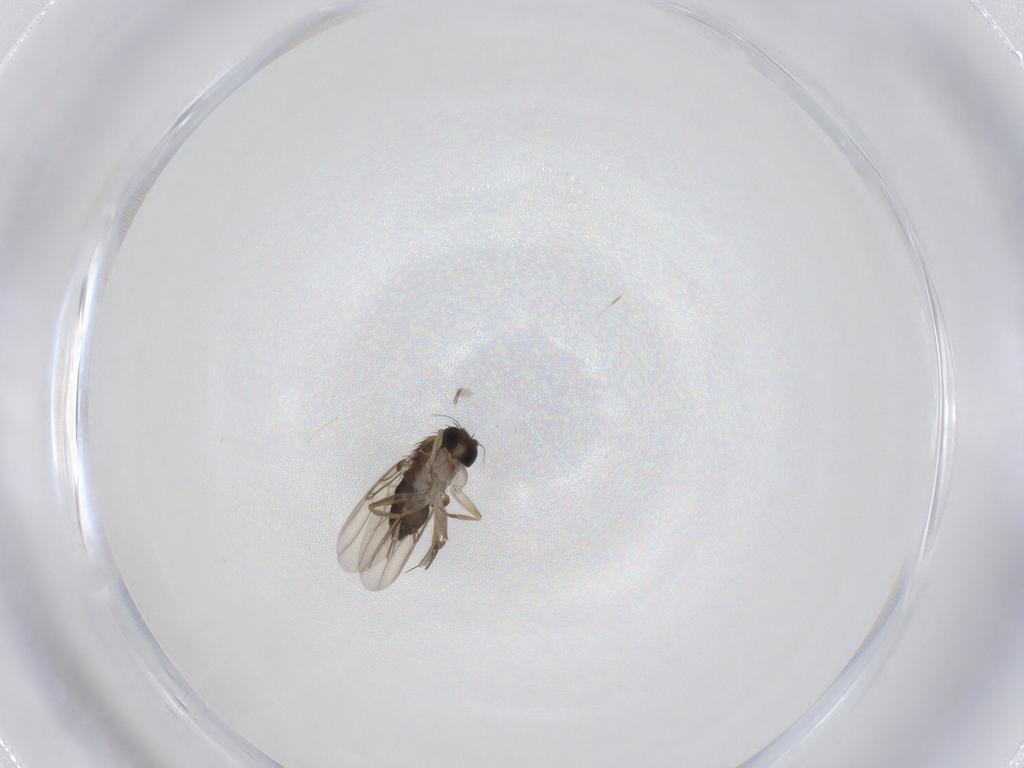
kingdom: Animalia
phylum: Arthropoda
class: Insecta
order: Diptera
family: Phoridae
